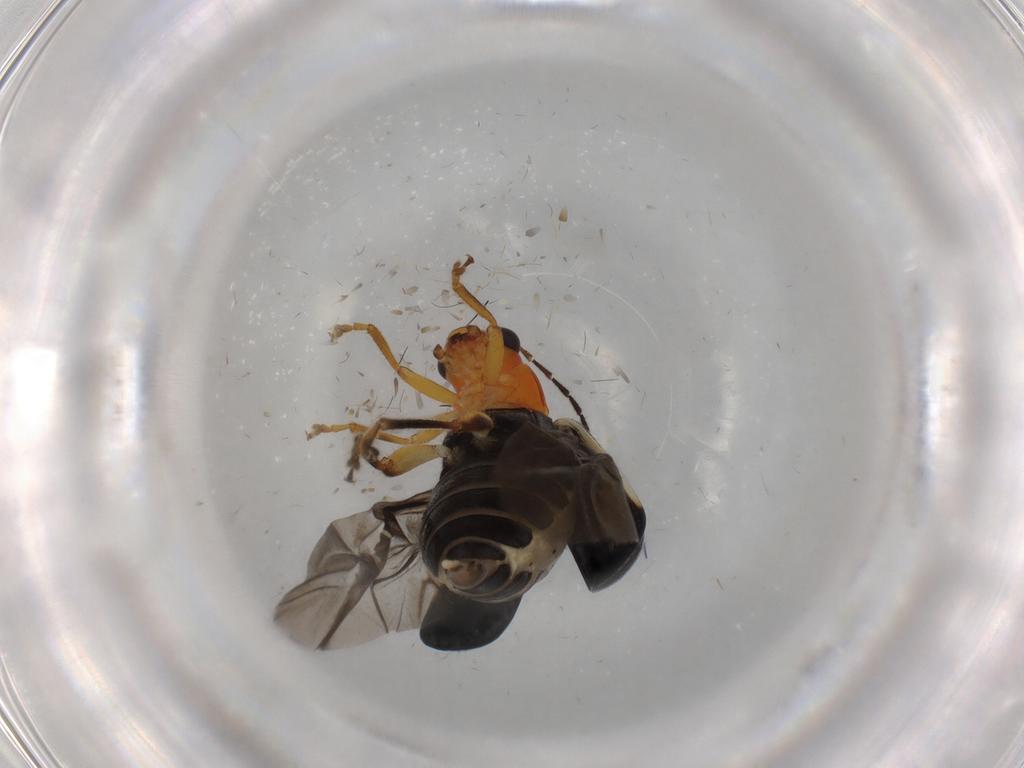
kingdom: Animalia
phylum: Arthropoda
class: Insecta
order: Coleoptera
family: Chrysomelidae
